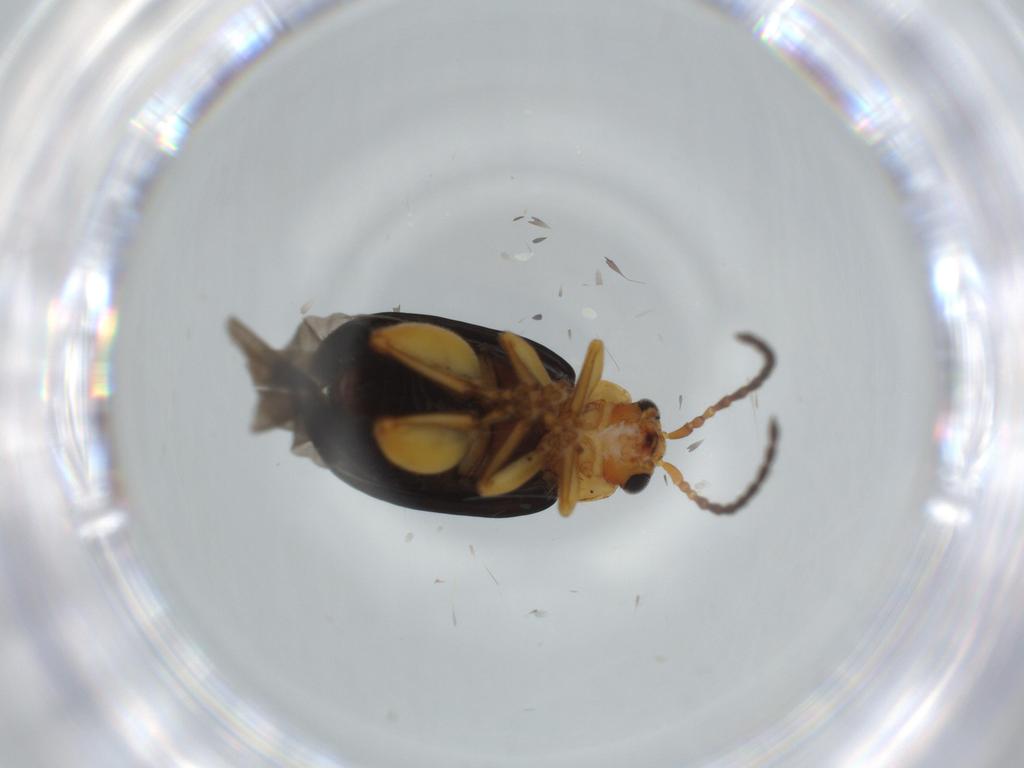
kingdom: Animalia
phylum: Arthropoda
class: Insecta
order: Coleoptera
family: Chrysomelidae
